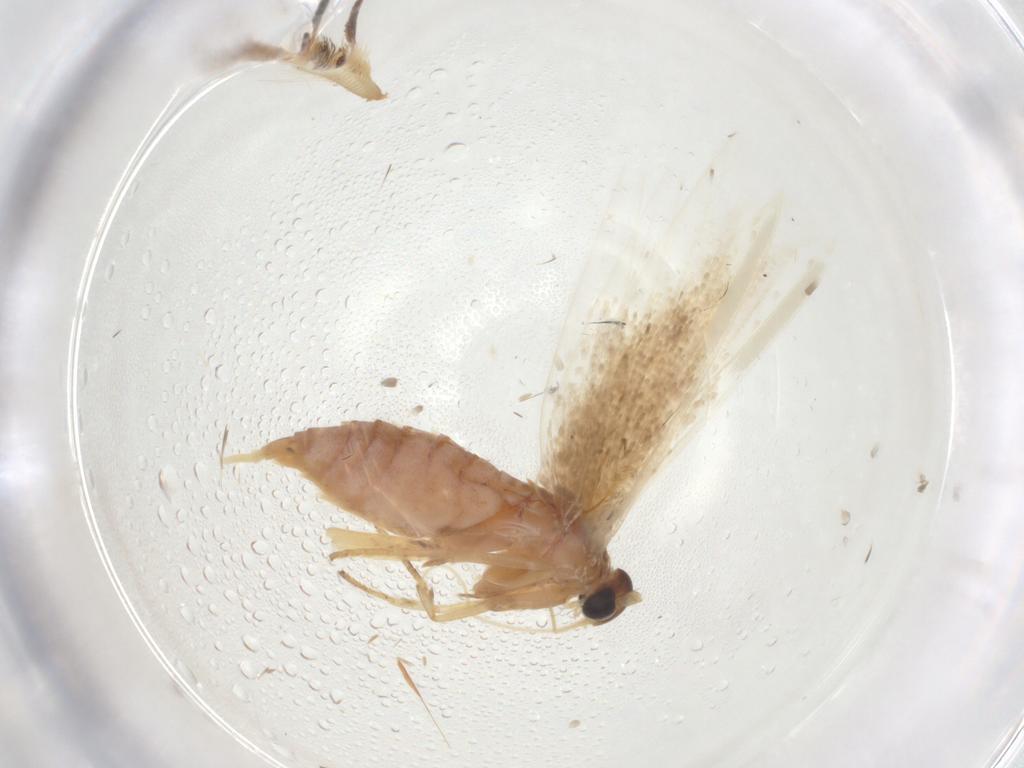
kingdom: Animalia
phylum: Arthropoda
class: Insecta
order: Lepidoptera
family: Blastobasidae
